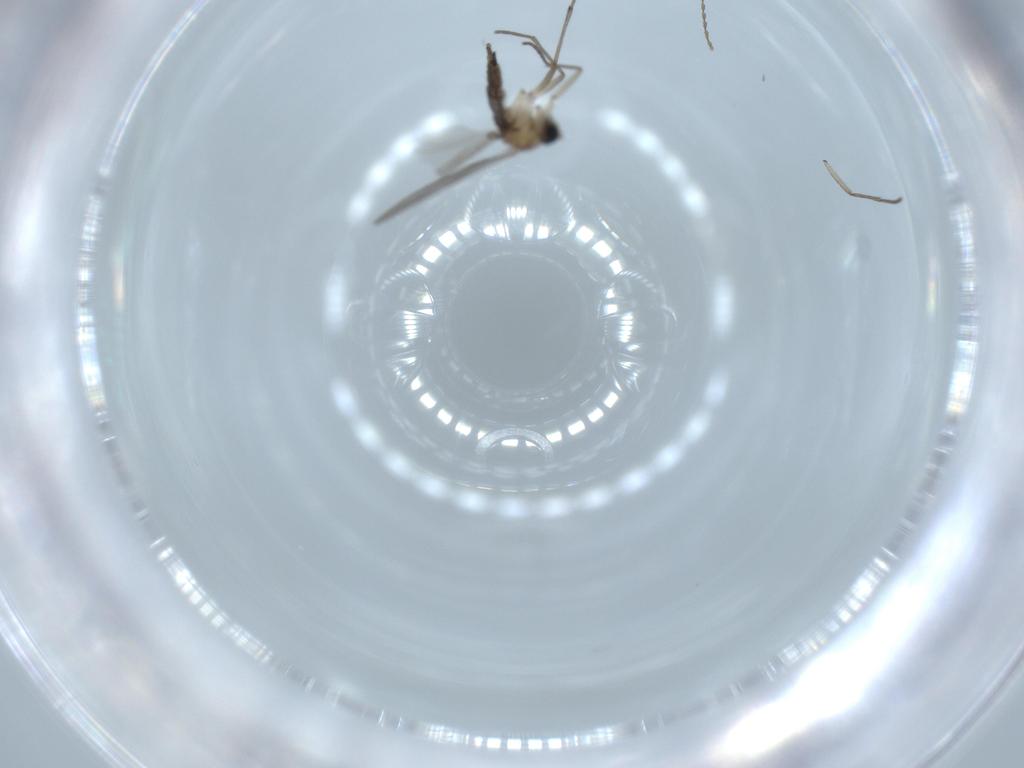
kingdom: Animalia
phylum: Arthropoda
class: Insecta
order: Diptera
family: Sciaridae
